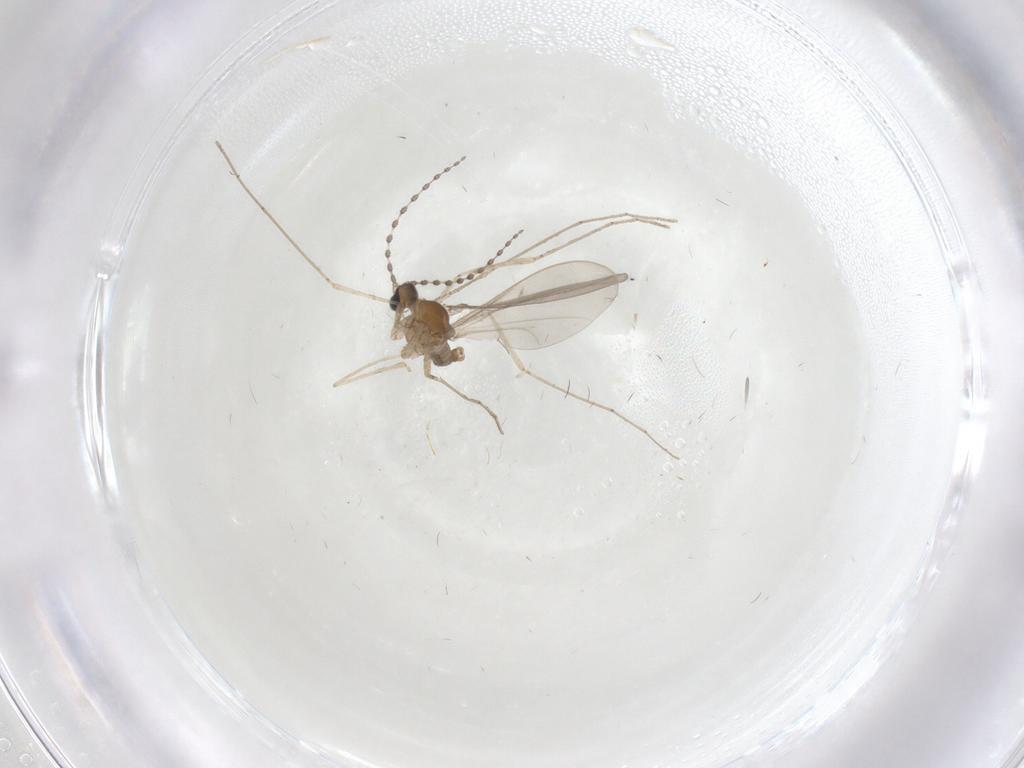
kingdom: Animalia
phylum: Arthropoda
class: Insecta
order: Diptera
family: Cecidomyiidae
